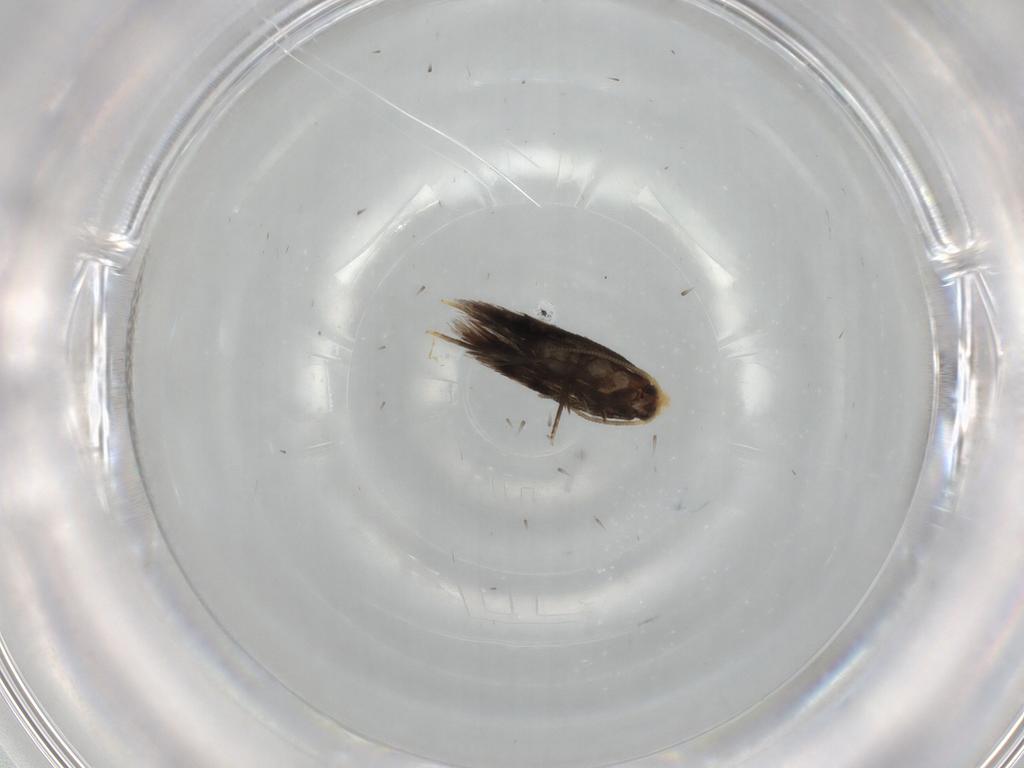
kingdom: Animalia
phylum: Arthropoda
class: Insecta
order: Lepidoptera
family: Nepticulidae
